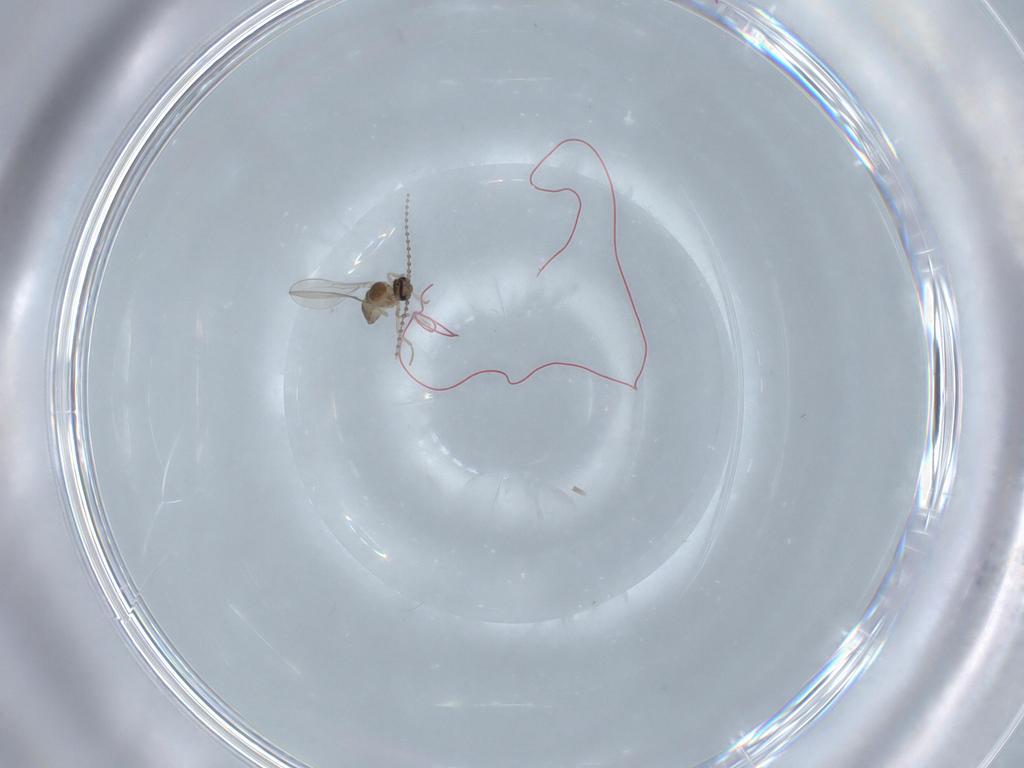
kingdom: Animalia
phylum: Arthropoda
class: Insecta
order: Diptera
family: Cecidomyiidae
